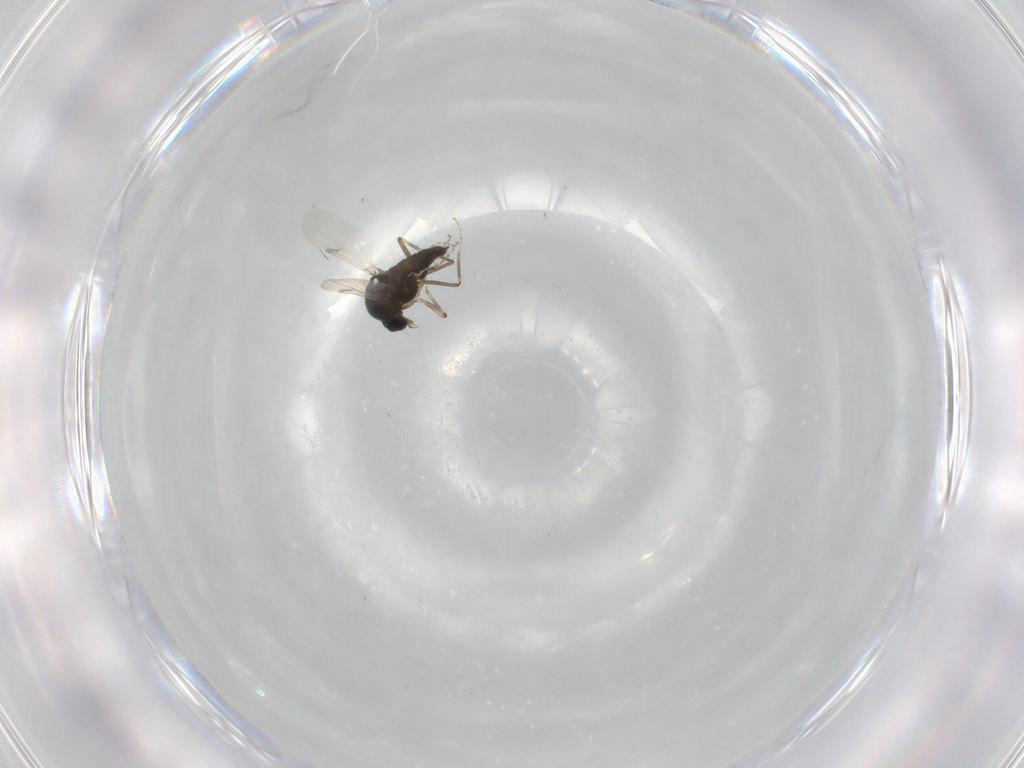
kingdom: Animalia
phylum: Arthropoda
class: Insecta
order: Diptera
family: Ceratopogonidae
